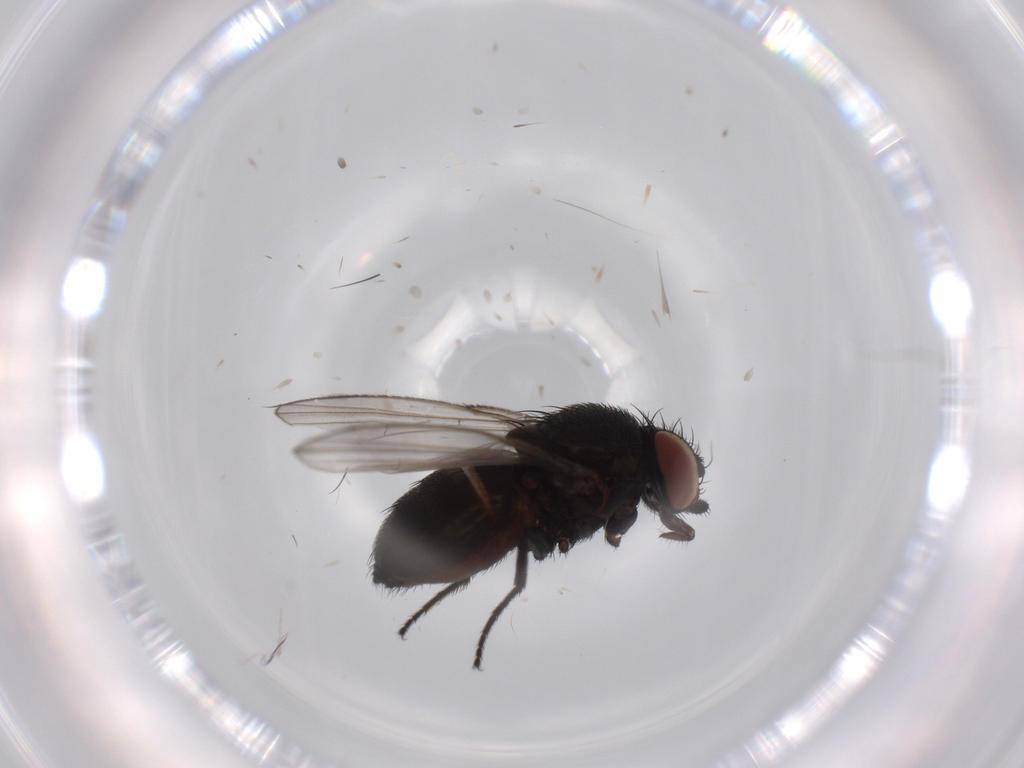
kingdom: Animalia
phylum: Arthropoda
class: Insecta
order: Diptera
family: Milichiidae
